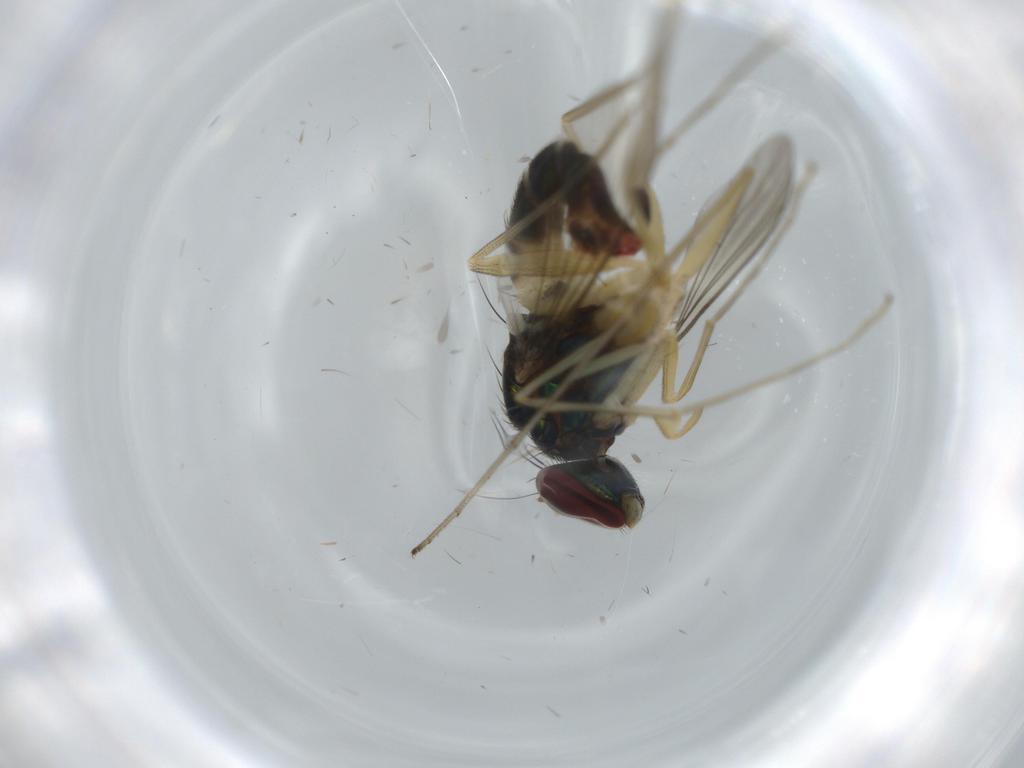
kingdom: Animalia
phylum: Arthropoda
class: Insecta
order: Diptera
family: Dolichopodidae
